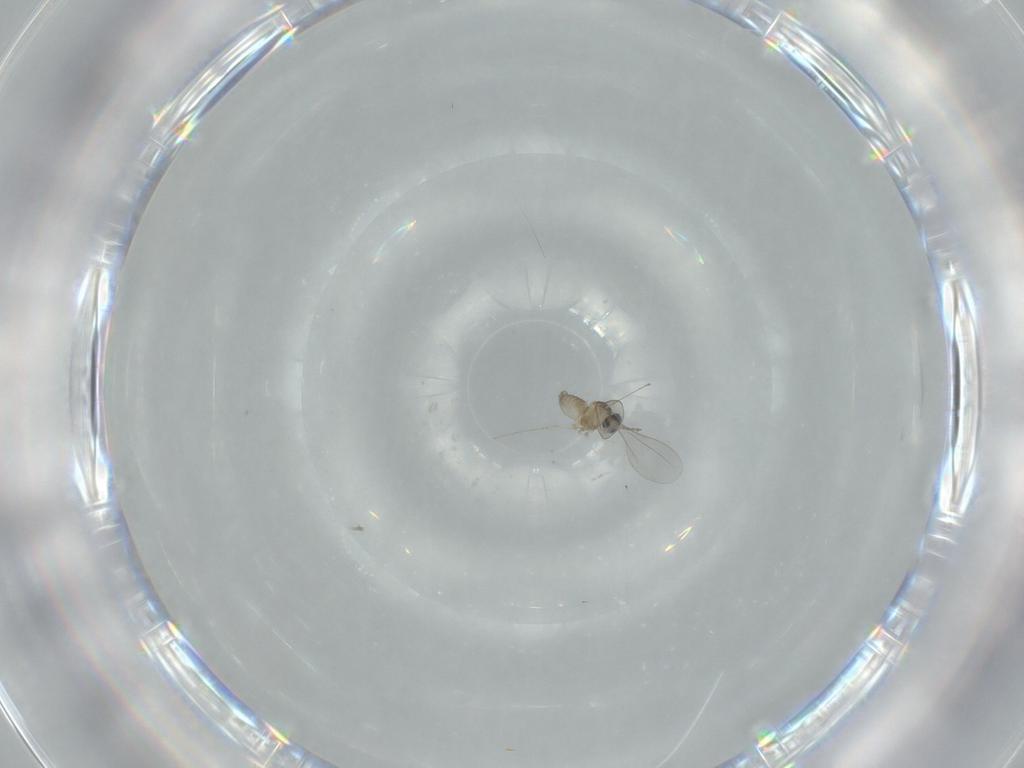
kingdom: Animalia
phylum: Arthropoda
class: Insecta
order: Diptera
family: Cecidomyiidae
